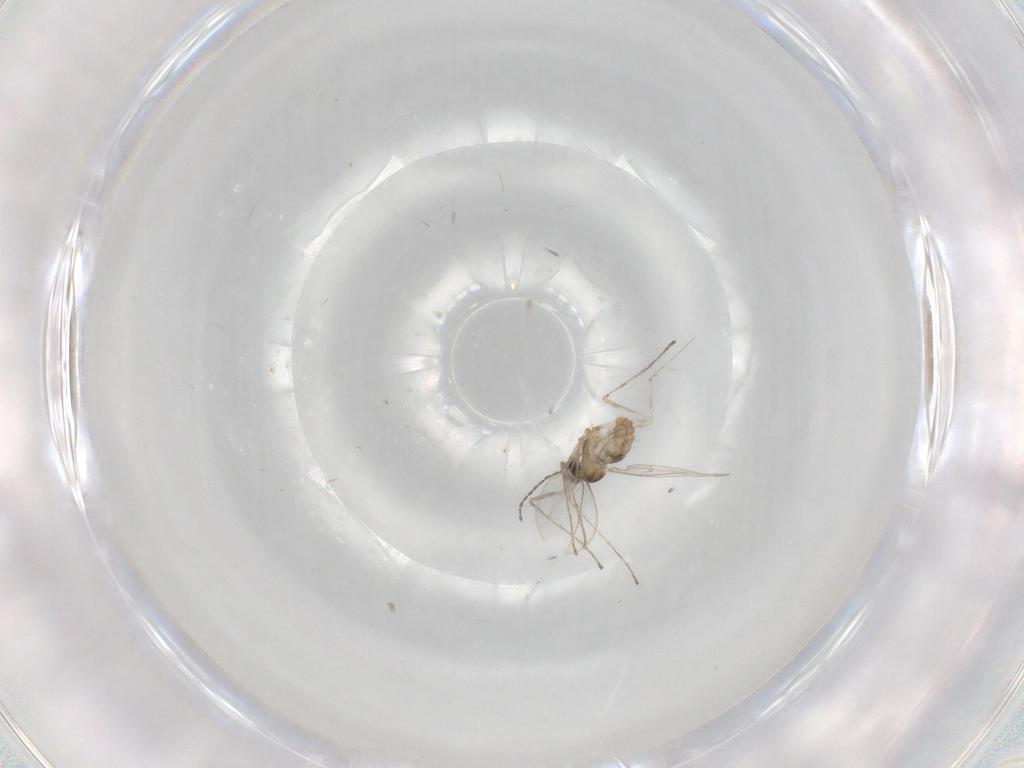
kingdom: Animalia
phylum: Arthropoda
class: Insecta
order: Diptera
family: Cecidomyiidae
